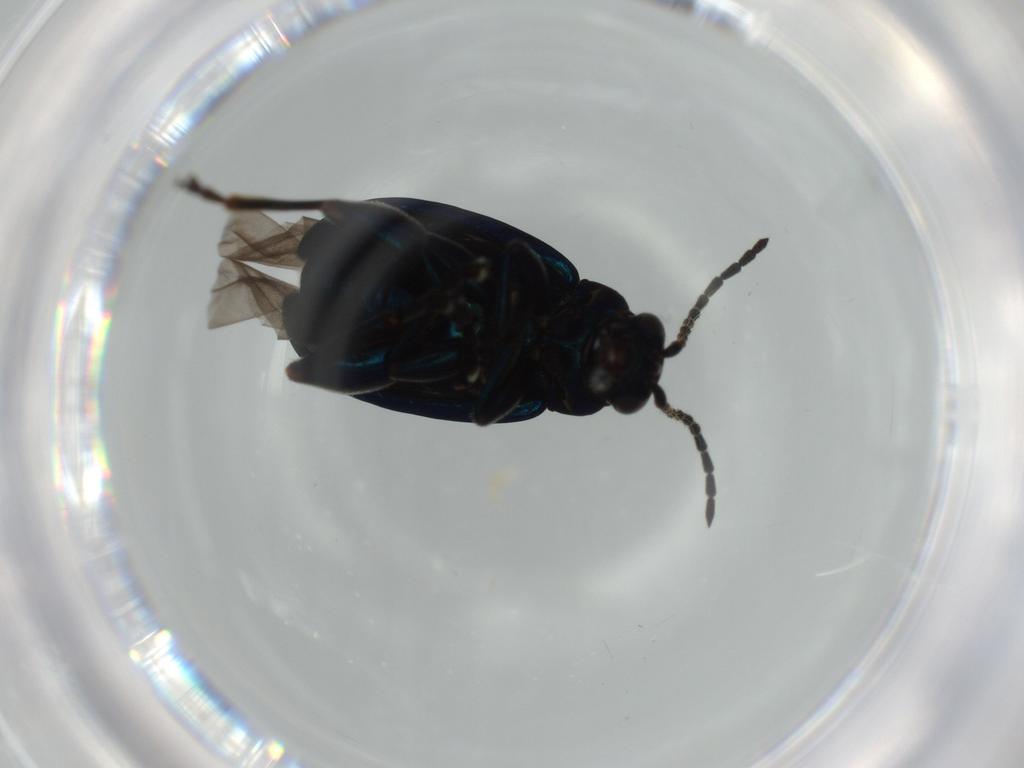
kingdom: Animalia
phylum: Arthropoda
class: Insecta
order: Coleoptera
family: Chrysomelidae
